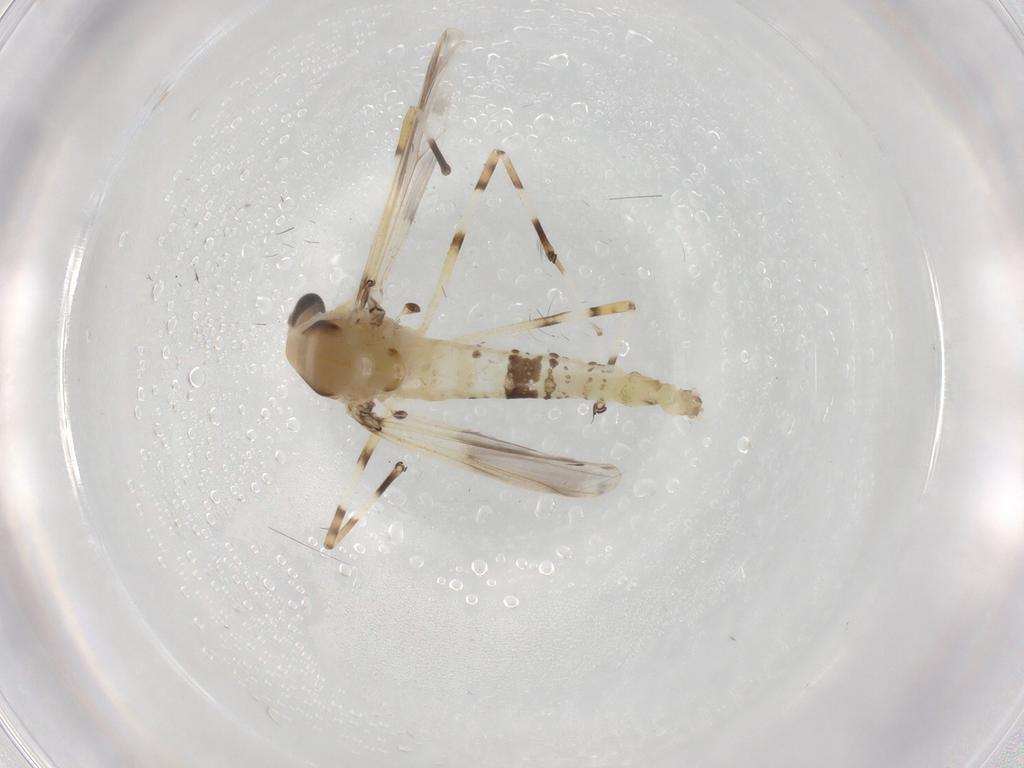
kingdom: Animalia
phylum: Arthropoda
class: Insecta
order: Diptera
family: Chironomidae
